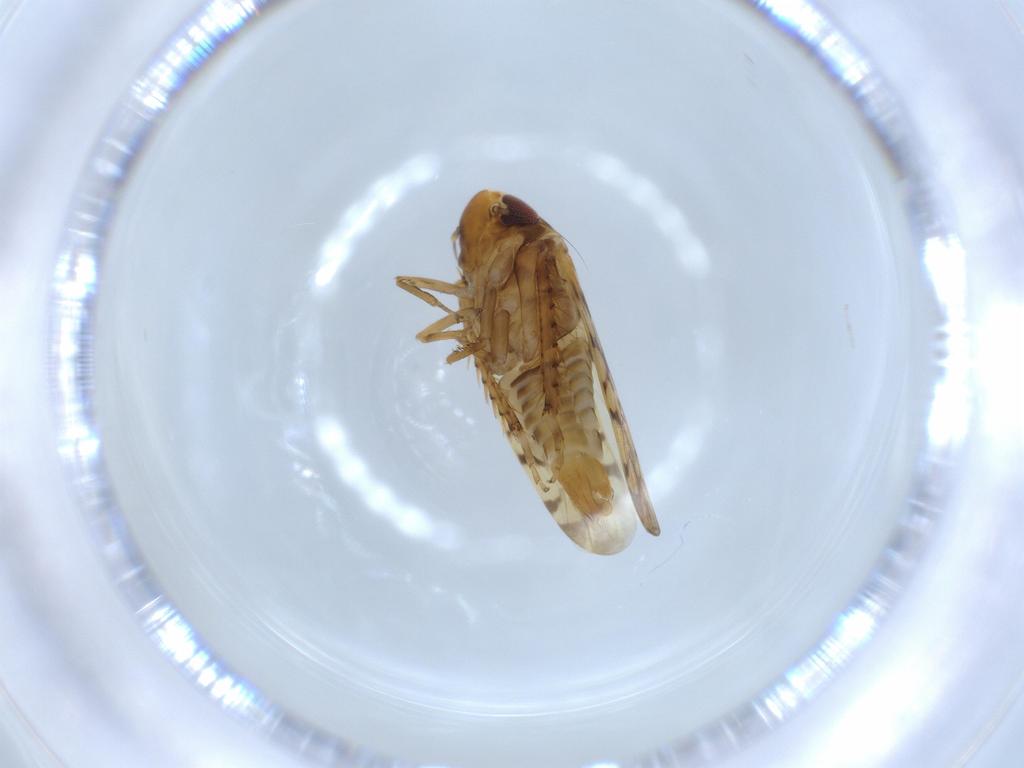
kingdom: Animalia
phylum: Arthropoda
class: Insecta
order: Hemiptera
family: Cicadellidae
